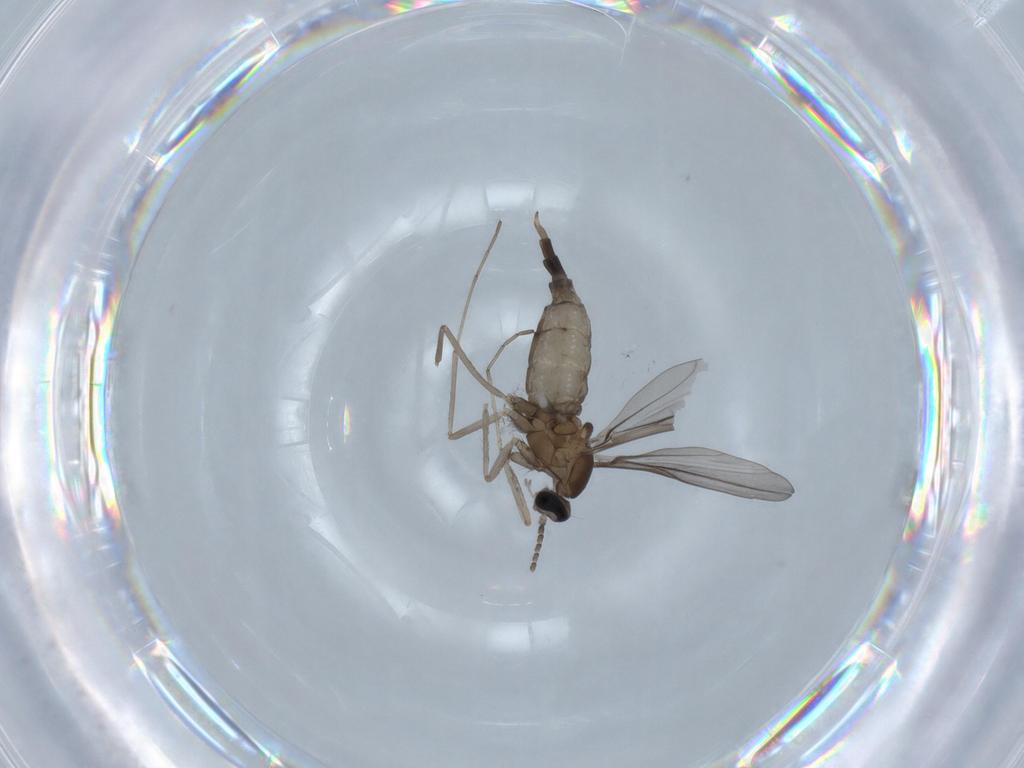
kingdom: Animalia
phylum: Arthropoda
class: Insecta
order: Diptera
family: Cecidomyiidae
